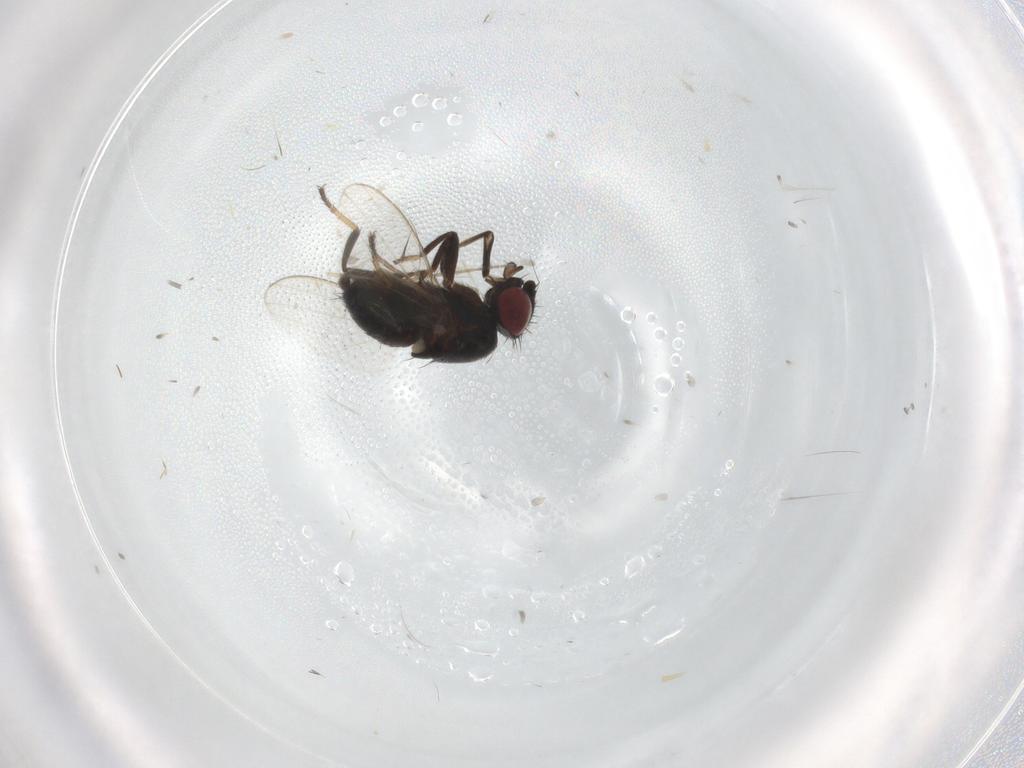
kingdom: Animalia
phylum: Arthropoda
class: Insecta
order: Diptera
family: Milichiidae
